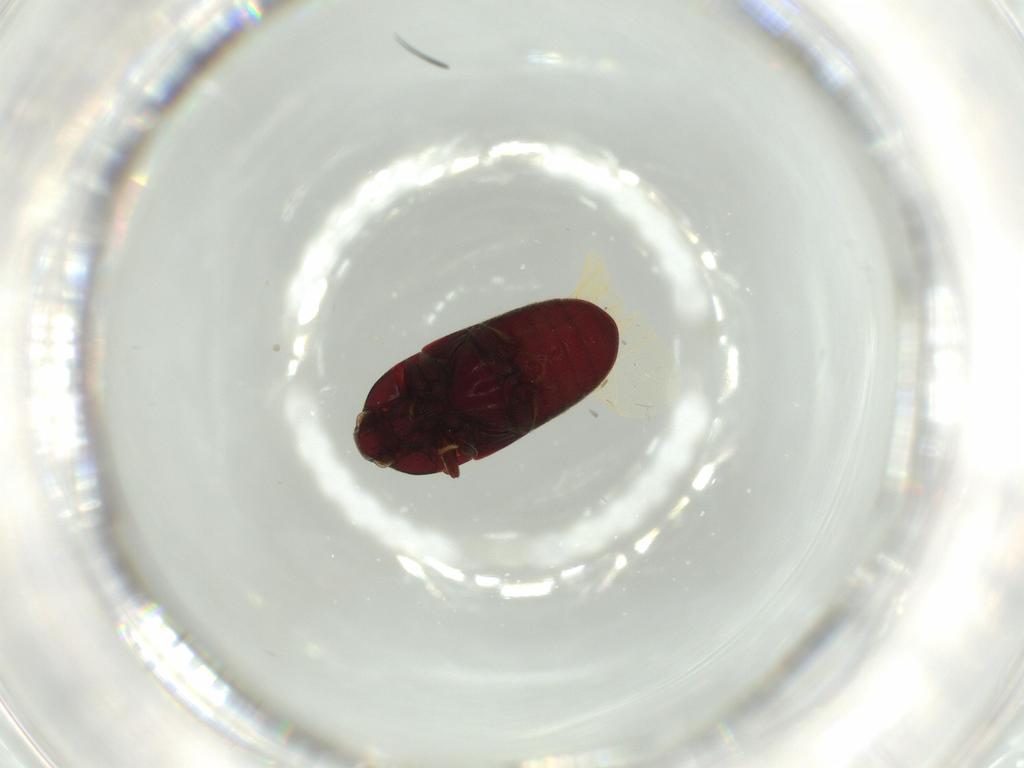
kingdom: Animalia
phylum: Arthropoda
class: Insecta
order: Coleoptera
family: Throscidae
